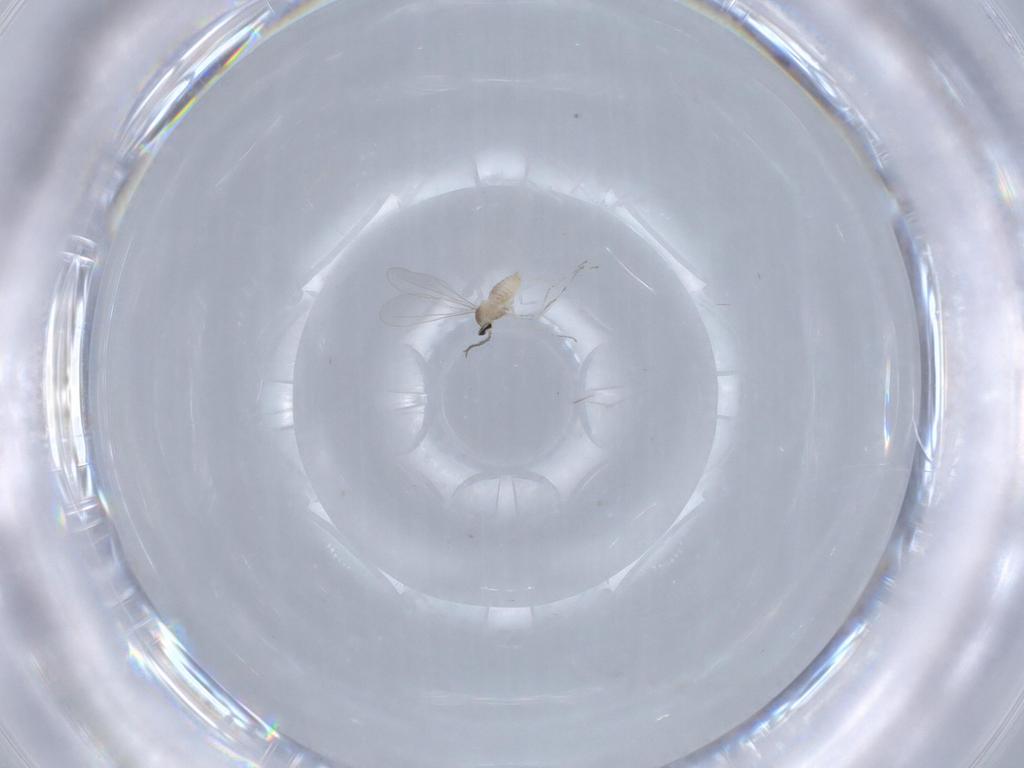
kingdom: Animalia
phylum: Arthropoda
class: Insecta
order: Diptera
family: Cecidomyiidae
